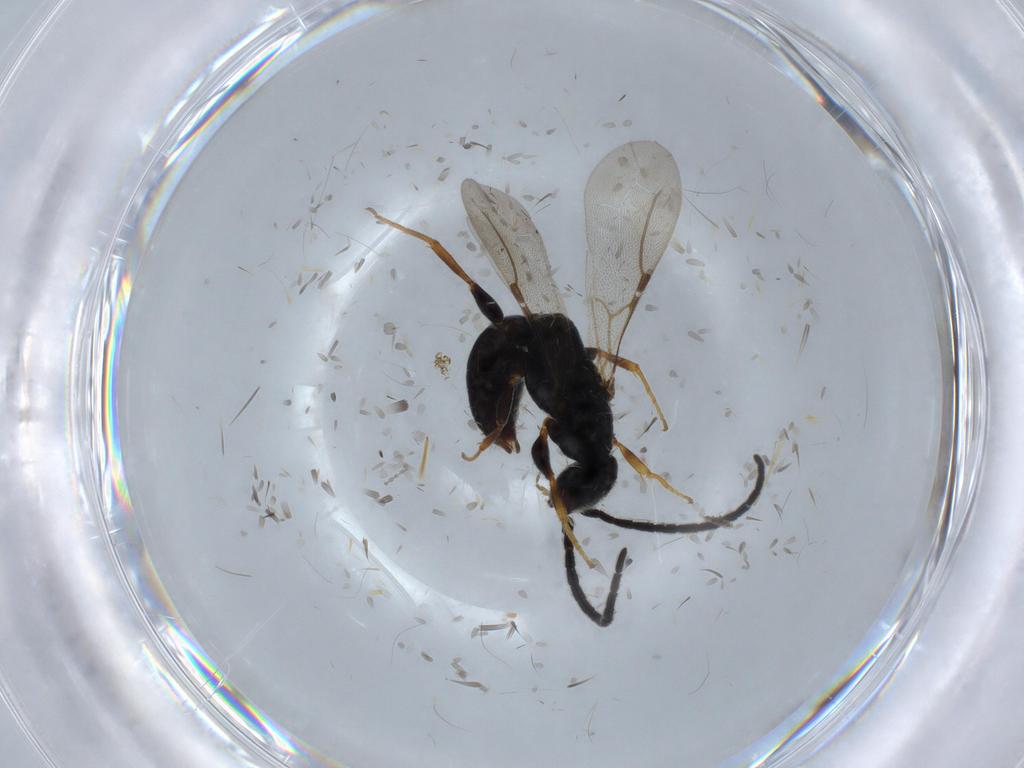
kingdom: Animalia
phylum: Arthropoda
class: Insecta
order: Hymenoptera
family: Bethylidae
